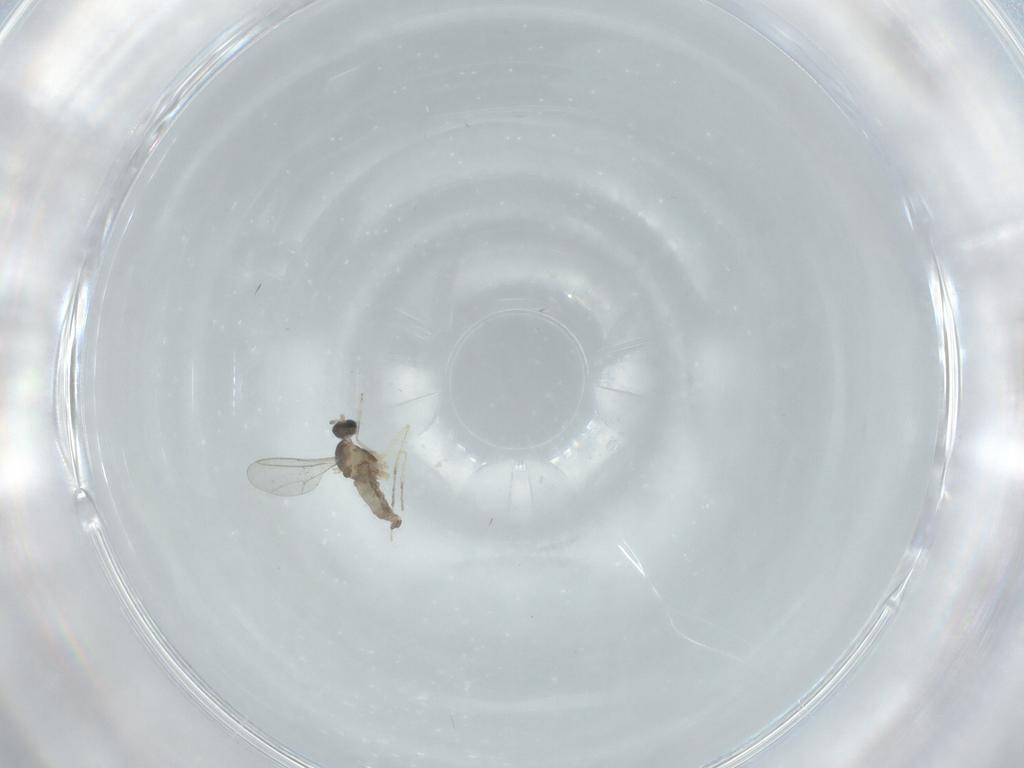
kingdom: Animalia
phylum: Arthropoda
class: Insecta
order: Diptera
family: Cecidomyiidae
